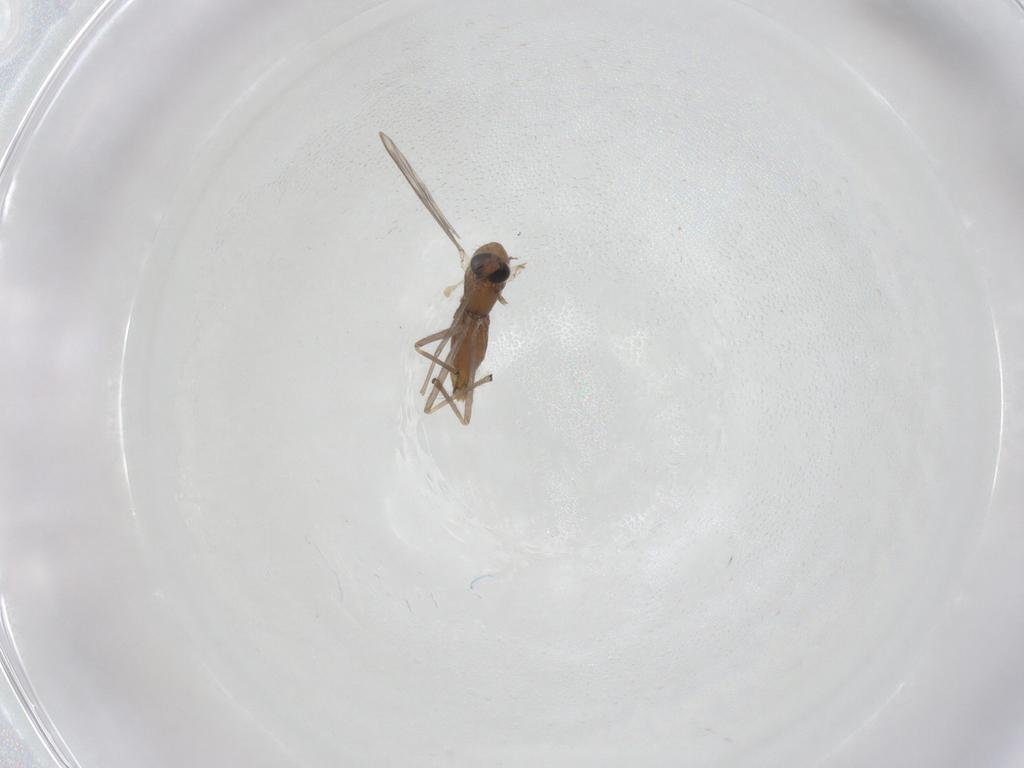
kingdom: Animalia
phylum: Arthropoda
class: Insecta
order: Diptera
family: Chironomidae
